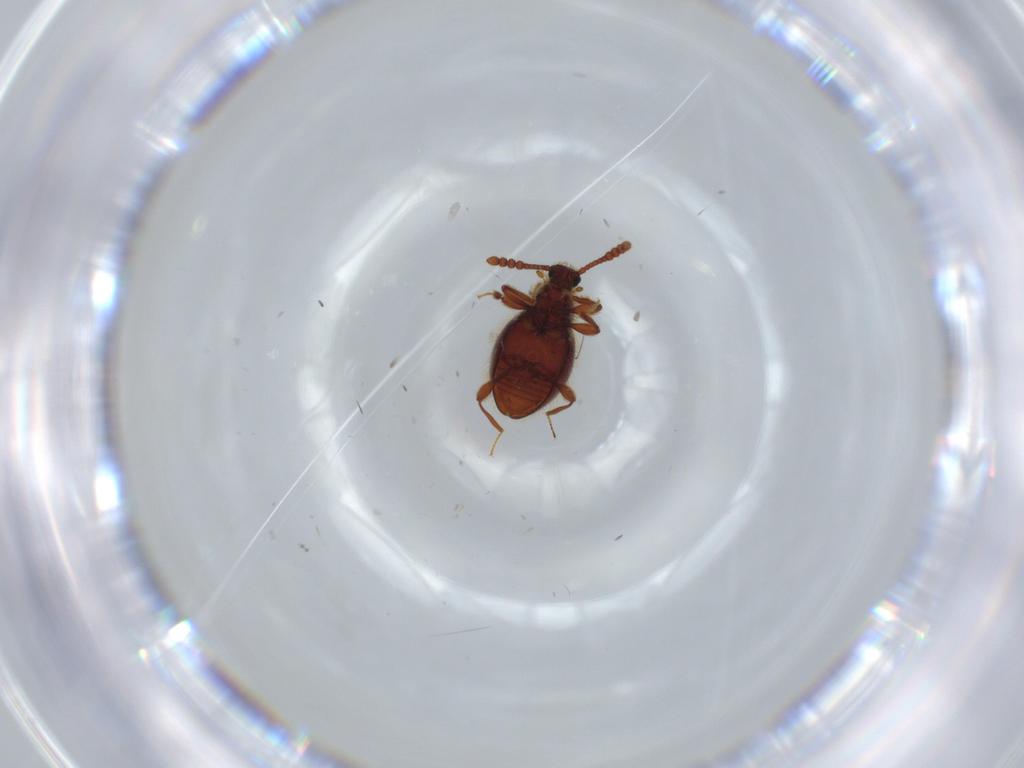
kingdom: Animalia
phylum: Arthropoda
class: Insecta
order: Coleoptera
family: Staphylinidae
